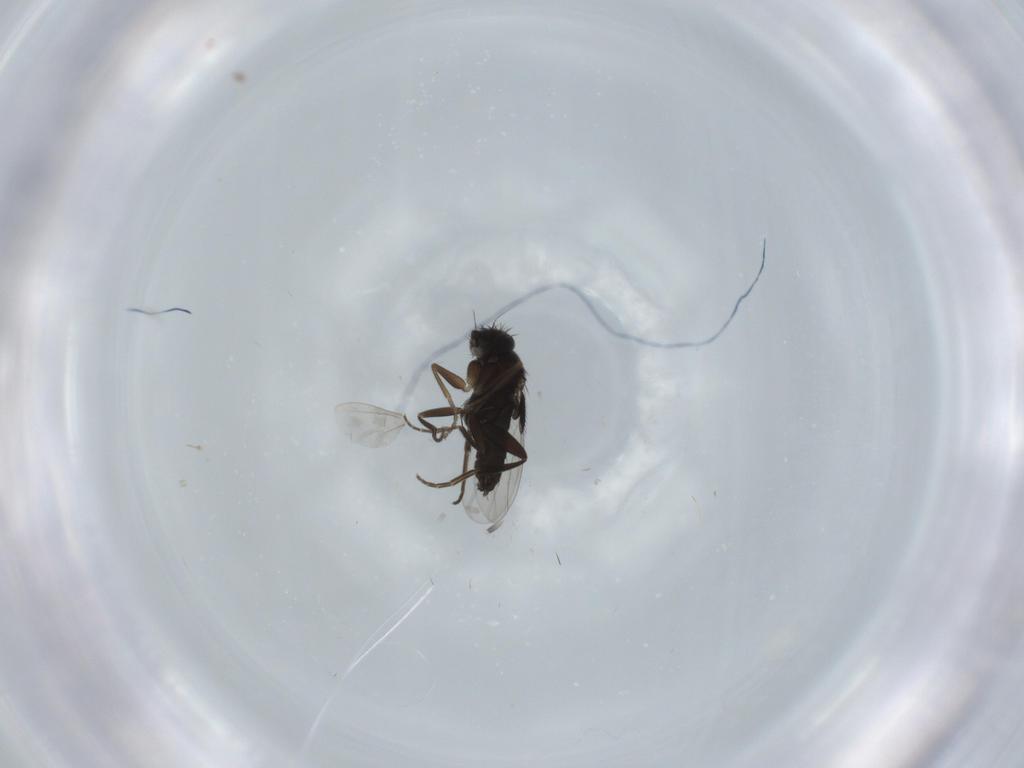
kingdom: Animalia
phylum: Arthropoda
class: Insecta
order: Diptera
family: Phoridae
